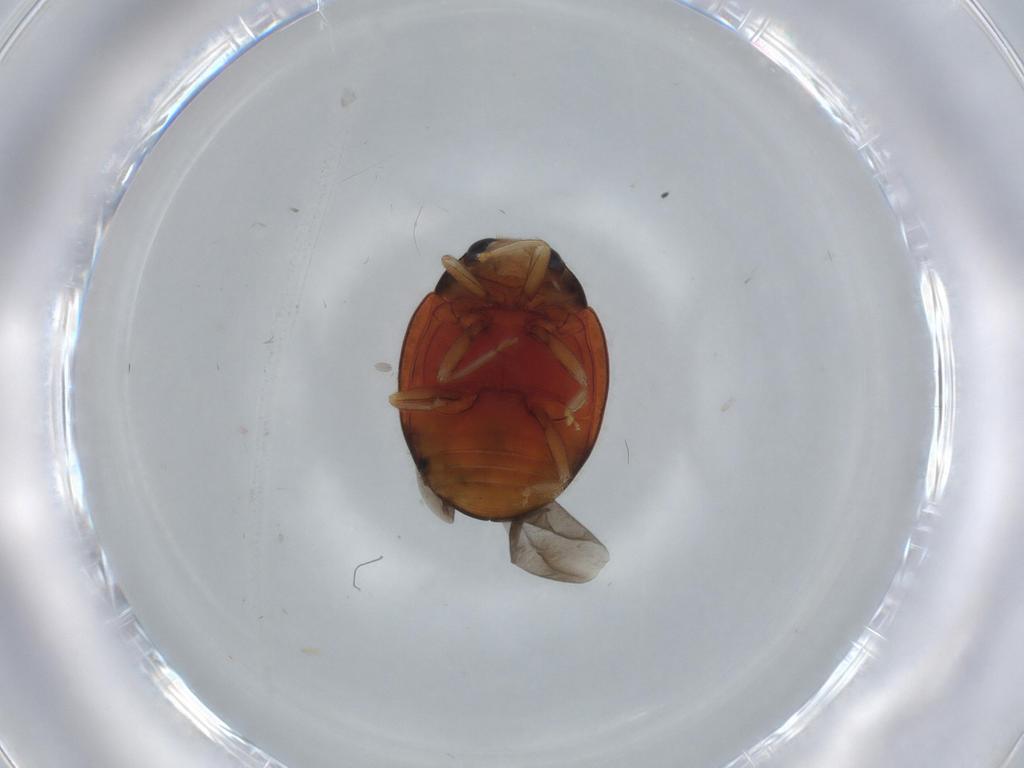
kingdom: Animalia
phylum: Arthropoda
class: Insecta
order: Coleoptera
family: Coccinellidae
